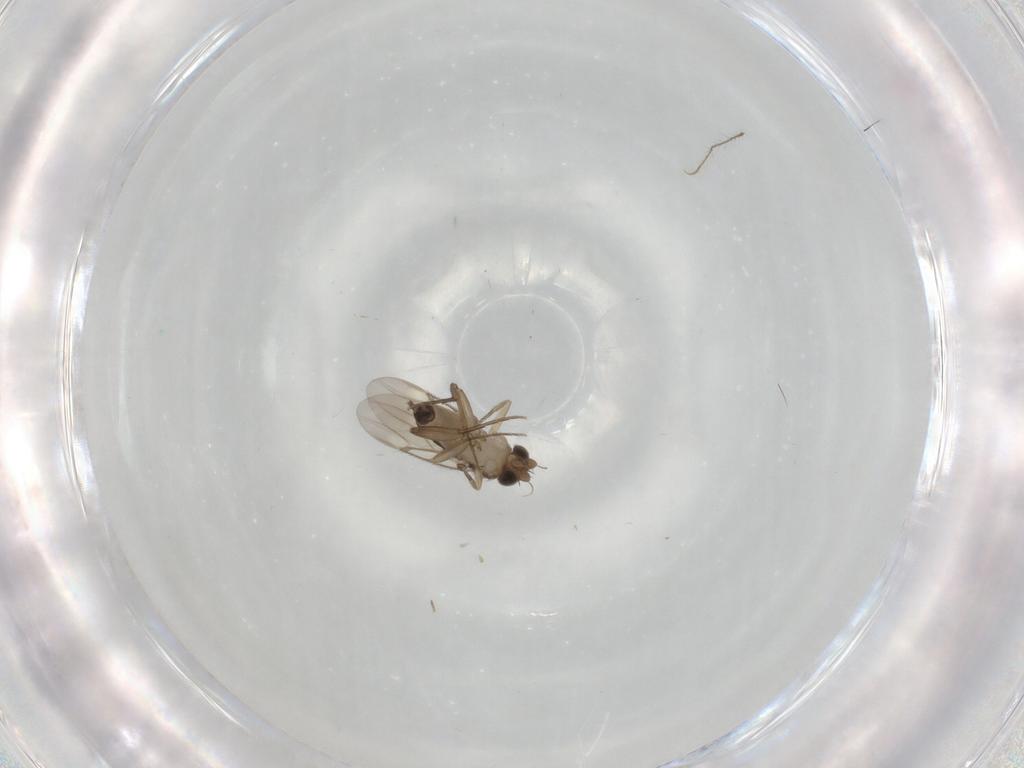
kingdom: Animalia
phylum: Arthropoda
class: Insecta
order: Diptera
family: Phoridae
